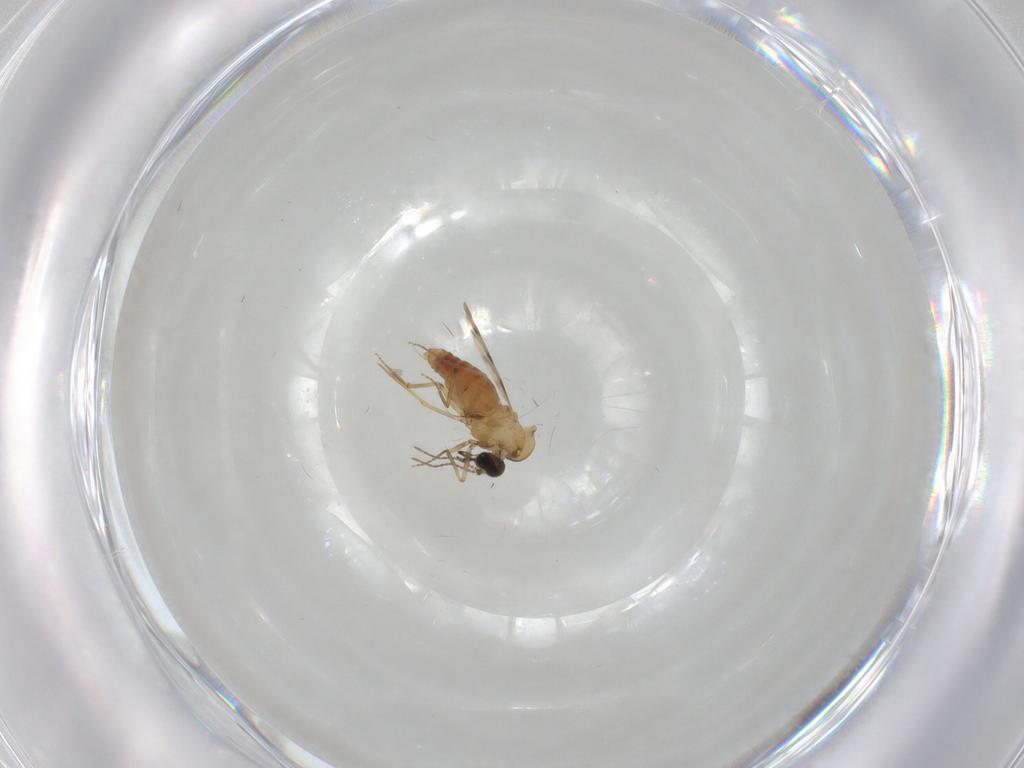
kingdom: Animalia
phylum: Arthropoda
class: Insecta
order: Diptera
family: Ceratopogonidae
